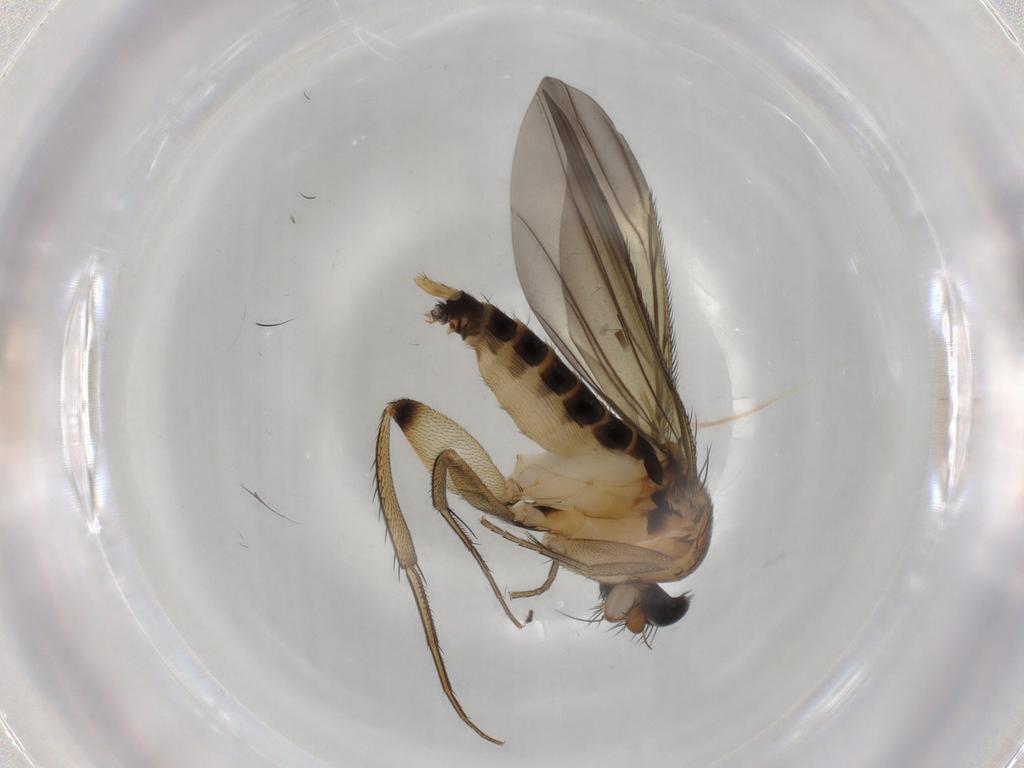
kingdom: Animalia
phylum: Arthropoda
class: Insecta
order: Diptera
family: Phoridae
